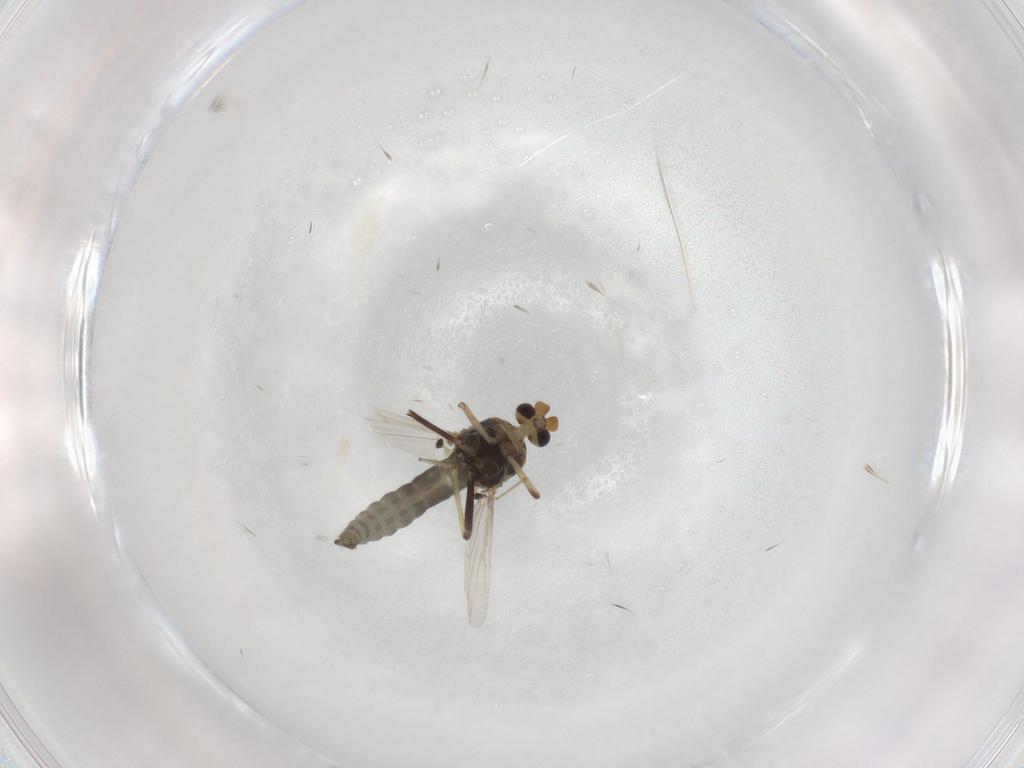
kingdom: Animalia
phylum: Arthropoda
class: Insecta
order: Diptera
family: Ceratopogonidae
